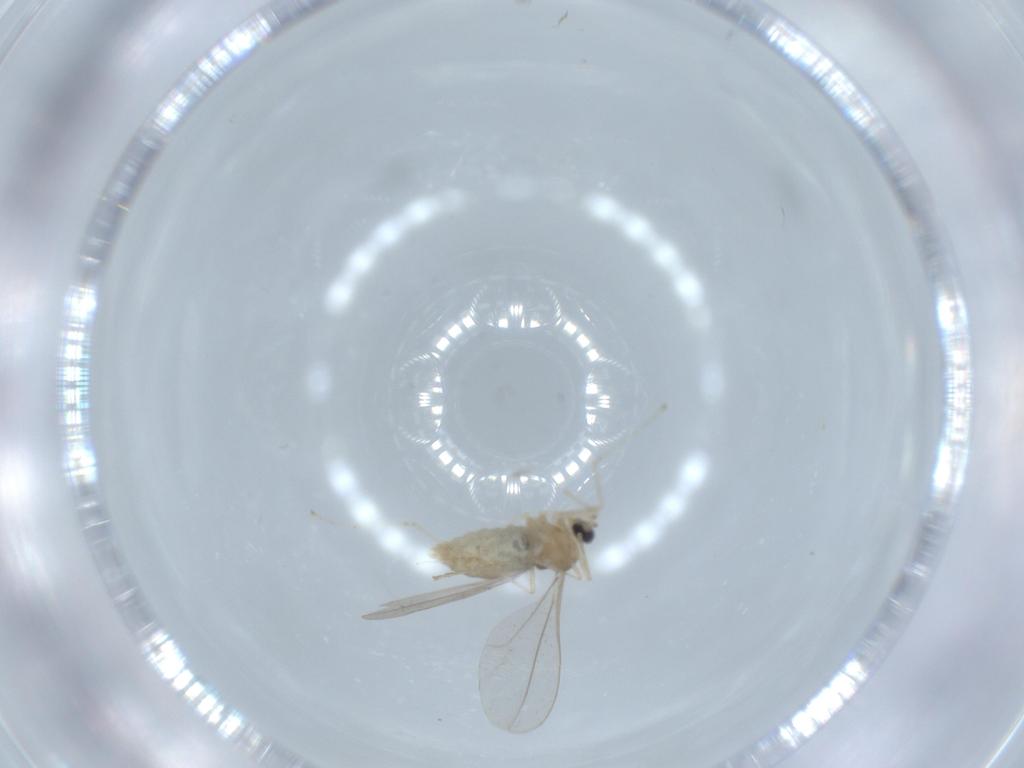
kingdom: Animalia
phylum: Arthropoda
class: Insecta
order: Diptera
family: Cecidomyiidae
